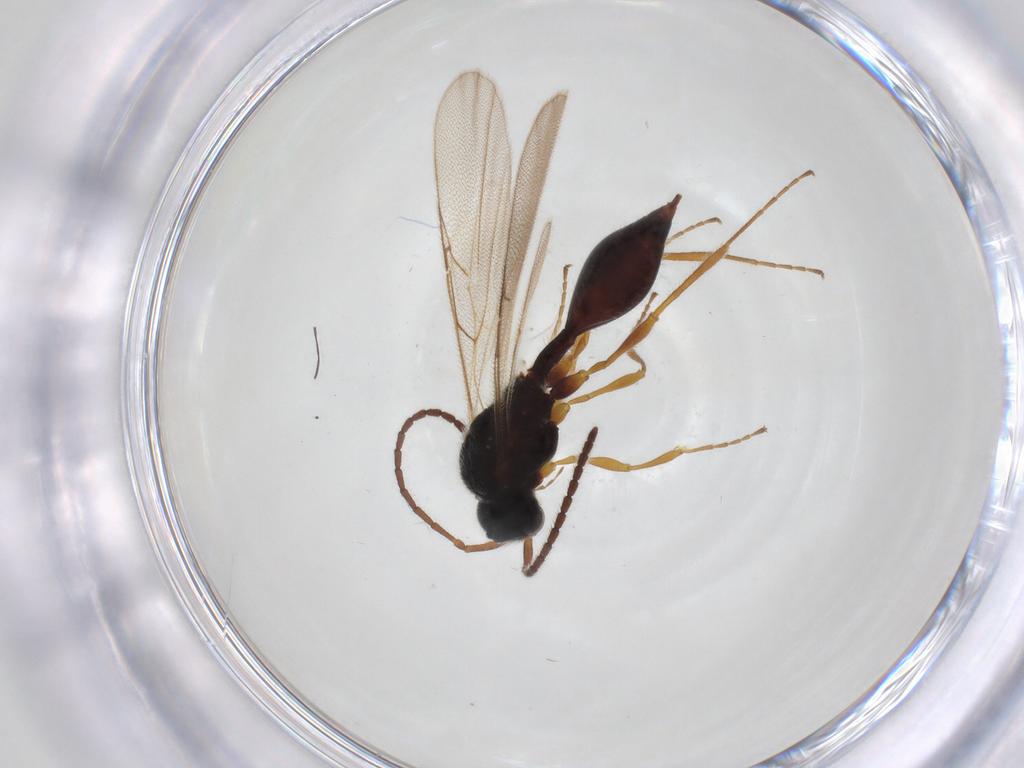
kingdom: Animalia
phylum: Arthropoda
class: Insecta
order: Hymenoptera
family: Diapriidae
